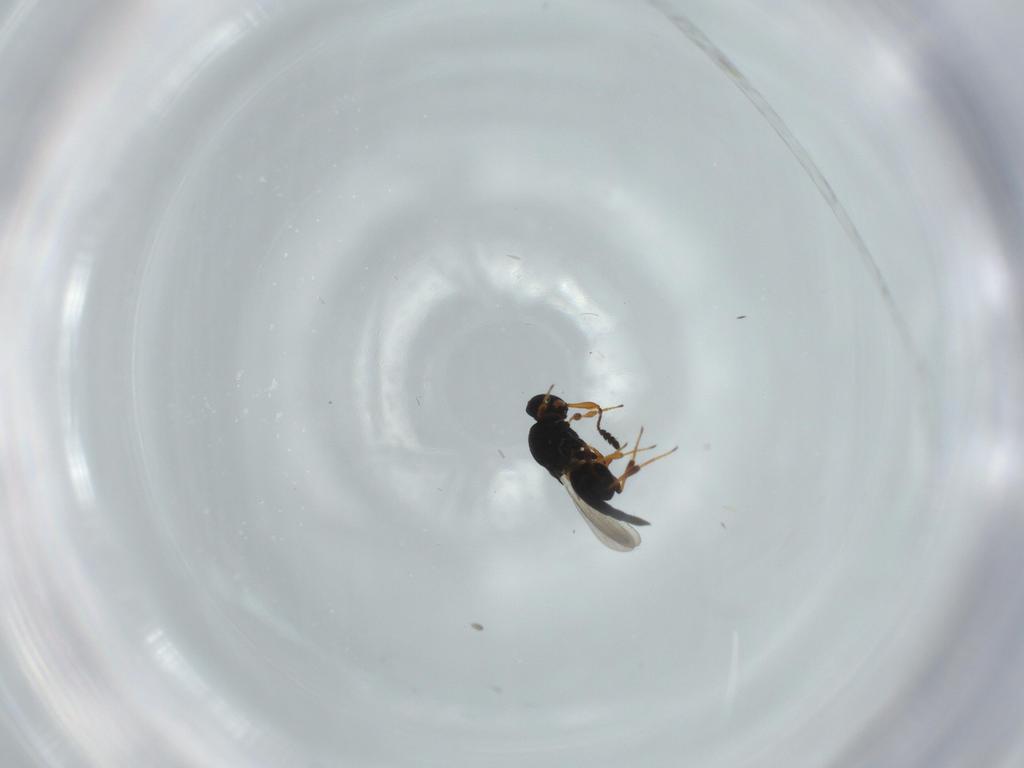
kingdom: Animalia
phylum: Arthropoda
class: Insecta
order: Hymenoptera
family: Platygastridae
